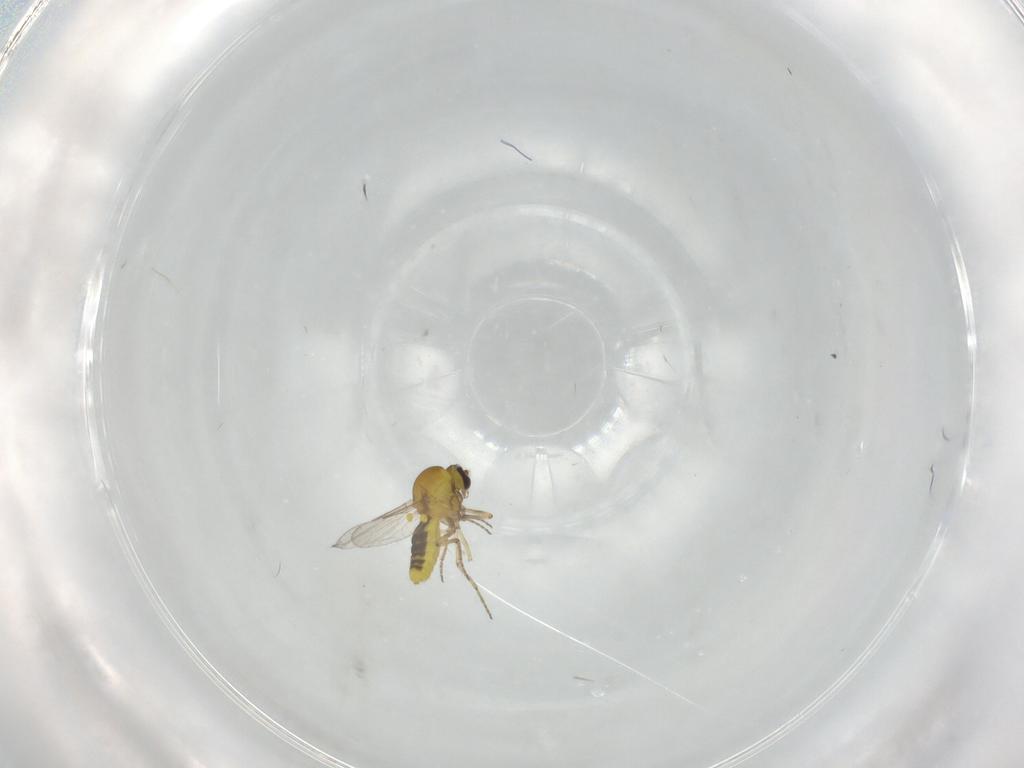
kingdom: Animalia
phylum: Arthropoda
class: Insecta
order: Diptera
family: Ceratopogonidae
